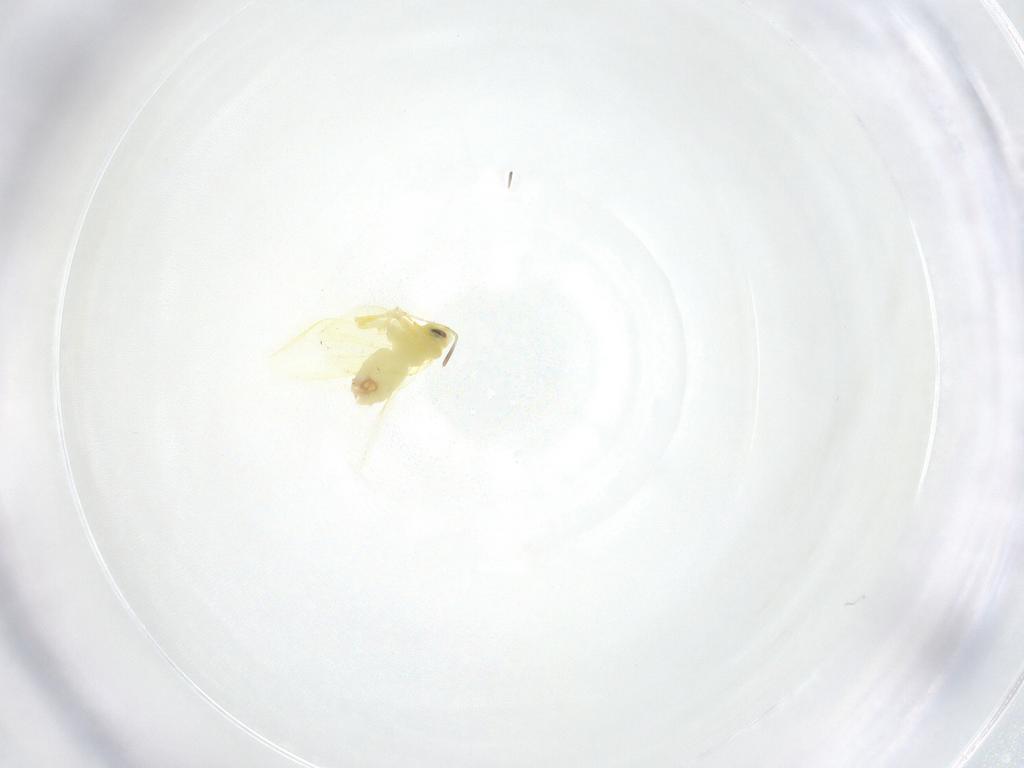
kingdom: Animalia
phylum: Arthropoda
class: Insecta
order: Hemiptera
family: Aleyrodidae
